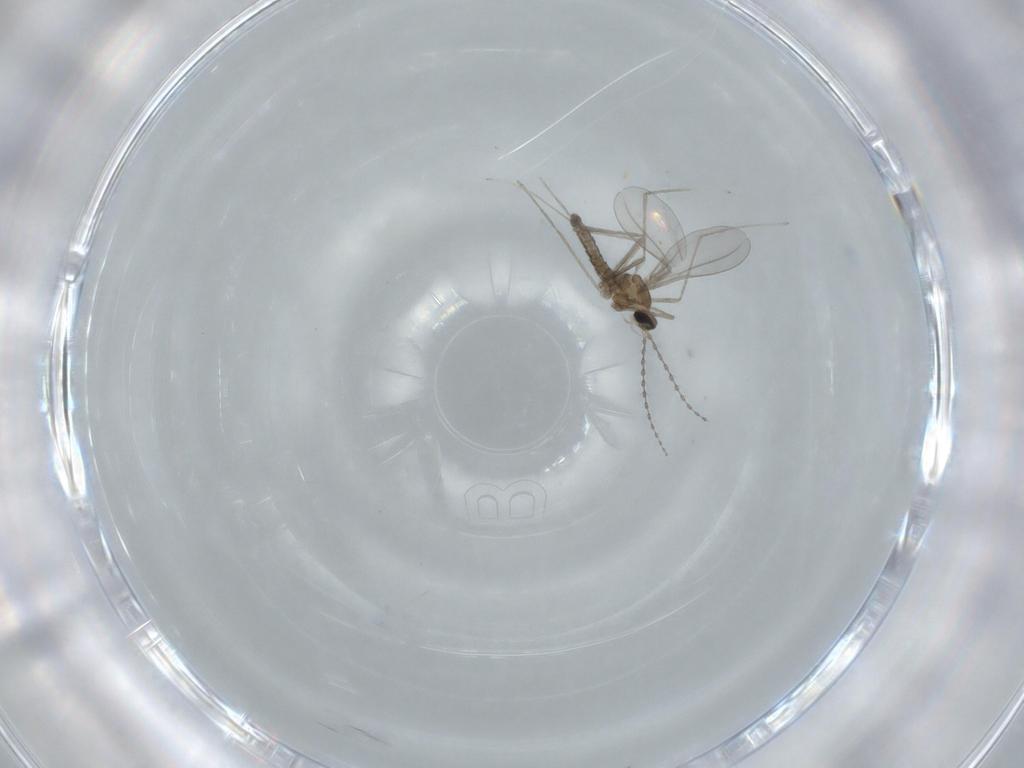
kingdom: Animalia
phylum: Arthropoda
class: Insecta
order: Diptera
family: Cecidomyiidae
